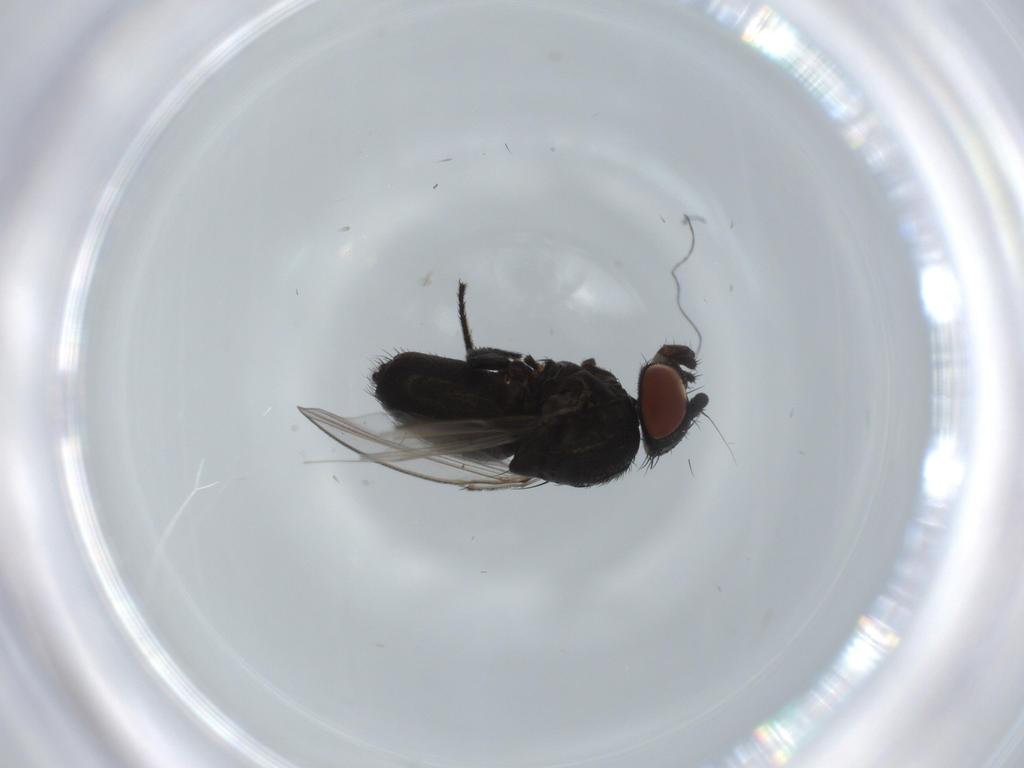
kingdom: Animalia
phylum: Arthropoda
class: Insecta
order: Diptera
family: Milichiidae
